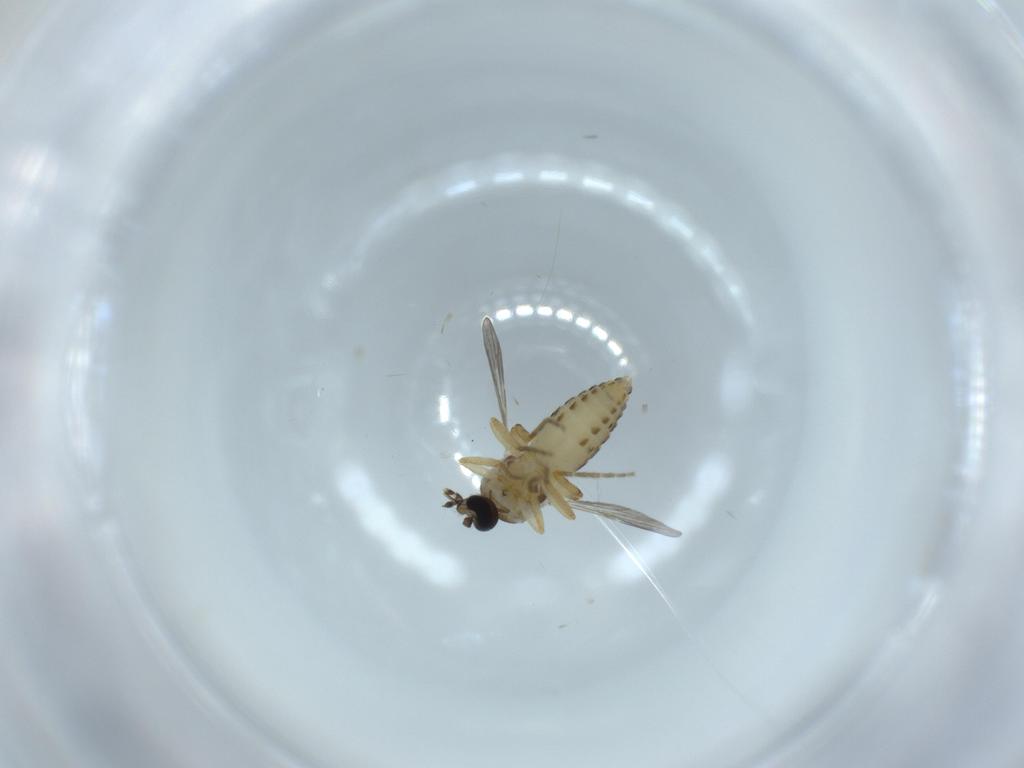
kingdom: Animalia
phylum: Arthropoda
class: Insecta
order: Diptera
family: Ceratopogonidae
